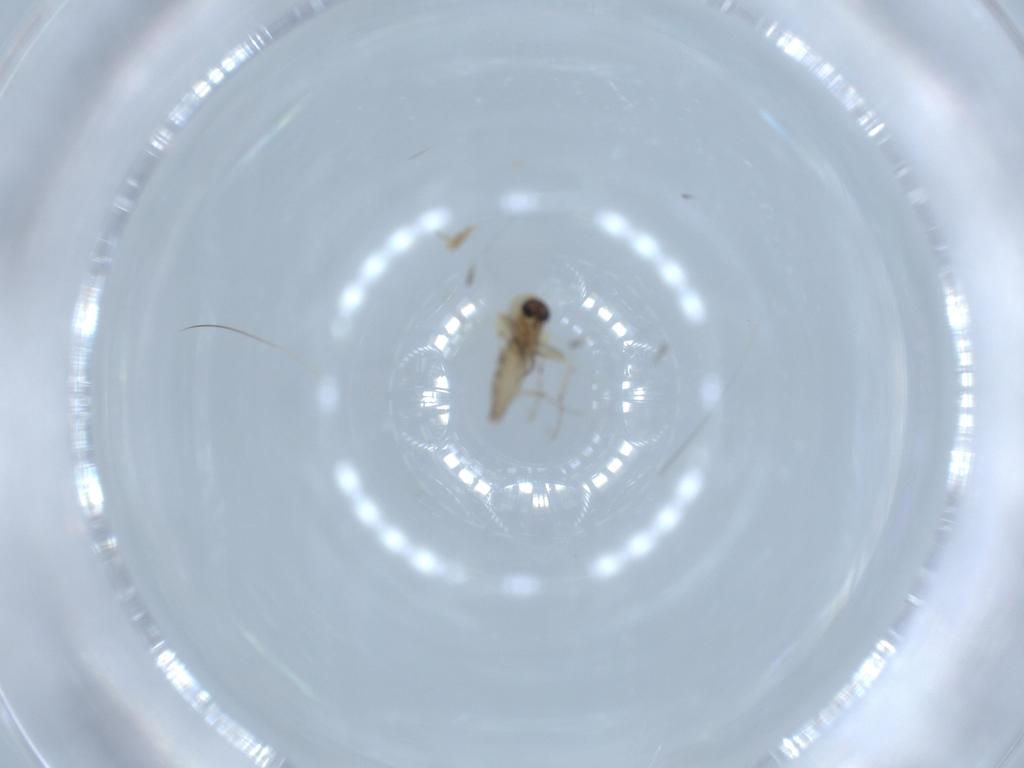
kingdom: Animalia
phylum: Arthropoda
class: Insecta
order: Diptera
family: Ceratopogonidae
